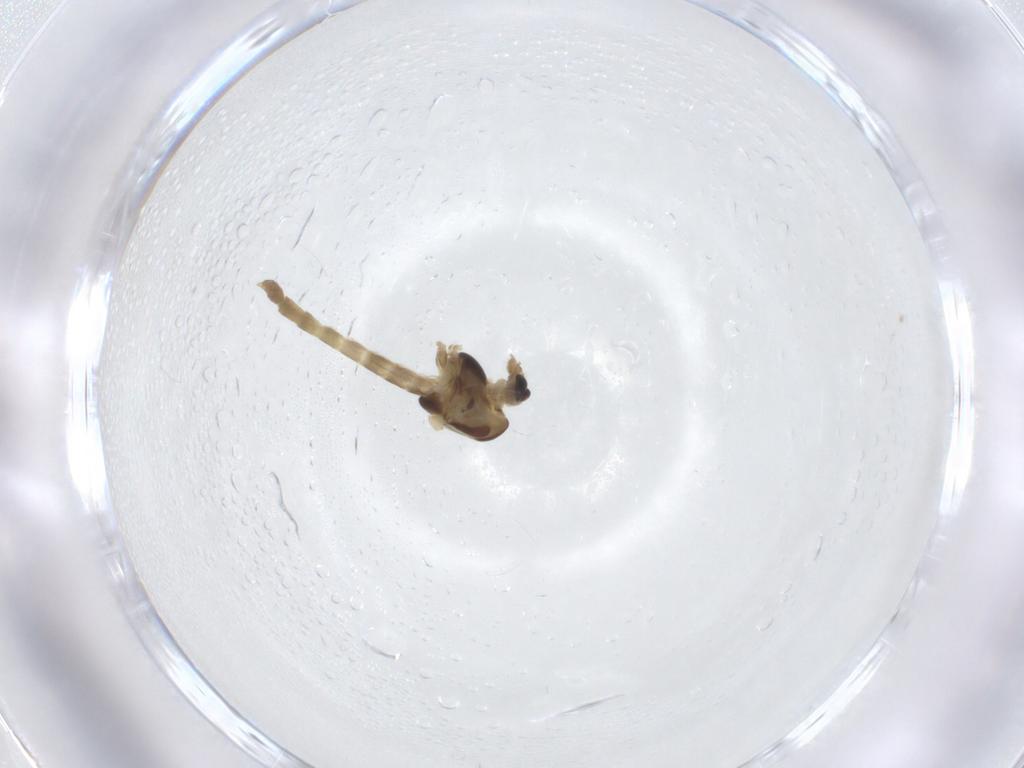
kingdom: Animalia
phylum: Arthropoda
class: Insecta
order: Diptera
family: Chironomidae
